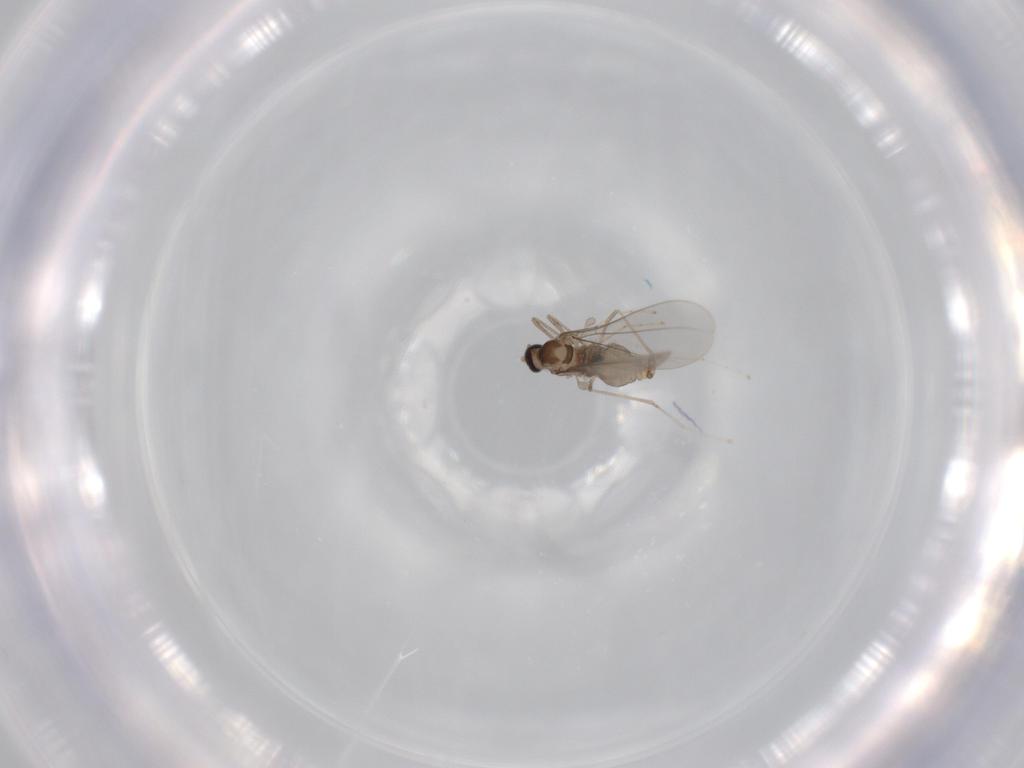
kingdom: Animalia
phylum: Arthropoda
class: Insecta
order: Diptera
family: Cecidomyiidae
